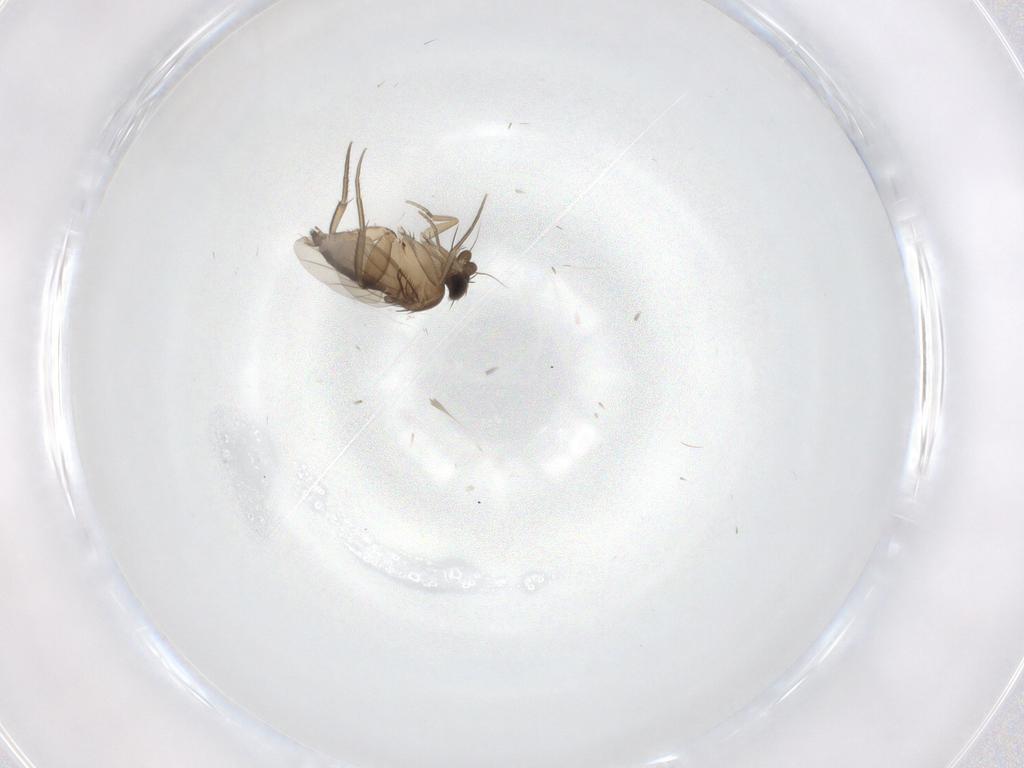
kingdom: Animalia
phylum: Arthropoda
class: Insecta
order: Diptera
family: Phoridae
